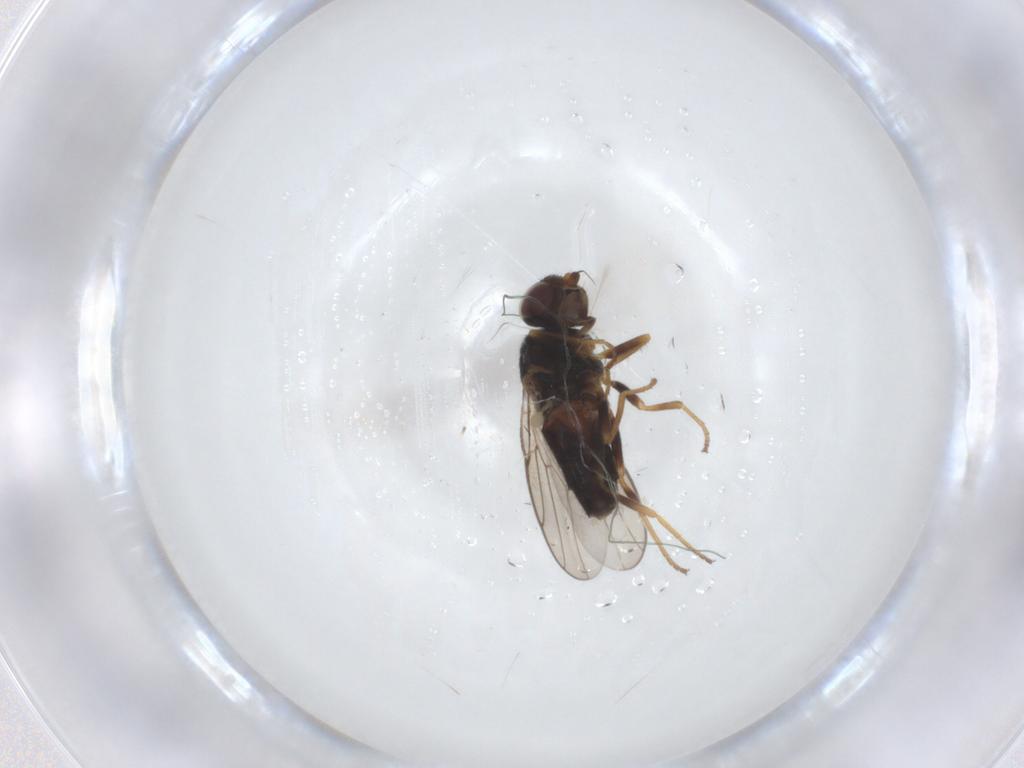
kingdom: Animalia
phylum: Arthropoda
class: Insecta
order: Diptera
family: Chloropidae
